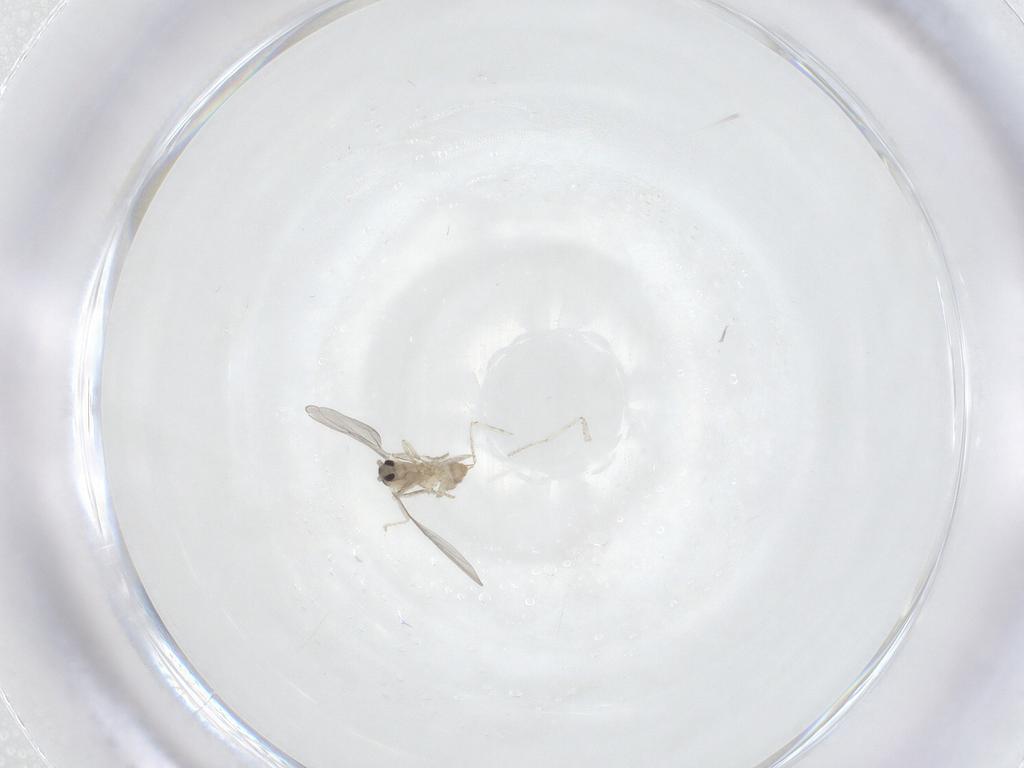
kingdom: Animalia
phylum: Arthropoda
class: Insecta
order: Diptera
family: Cecidomyiidae
